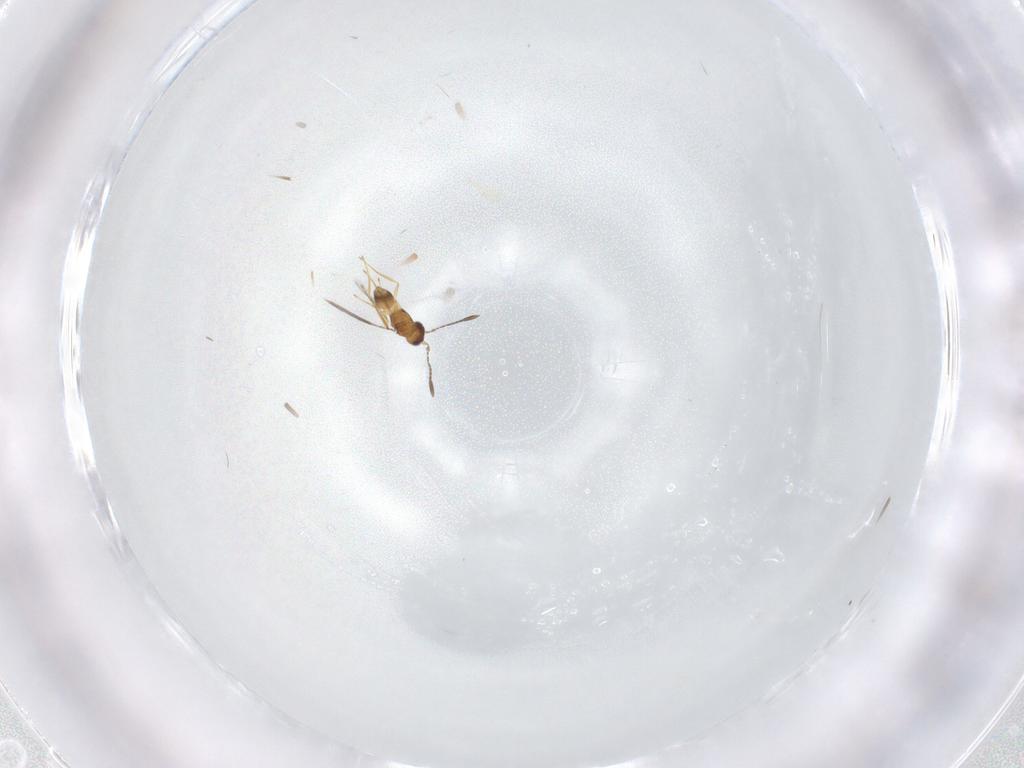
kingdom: Animalia
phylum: Arthropoda
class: Insecta
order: Hymenoptera
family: Mymaridae
